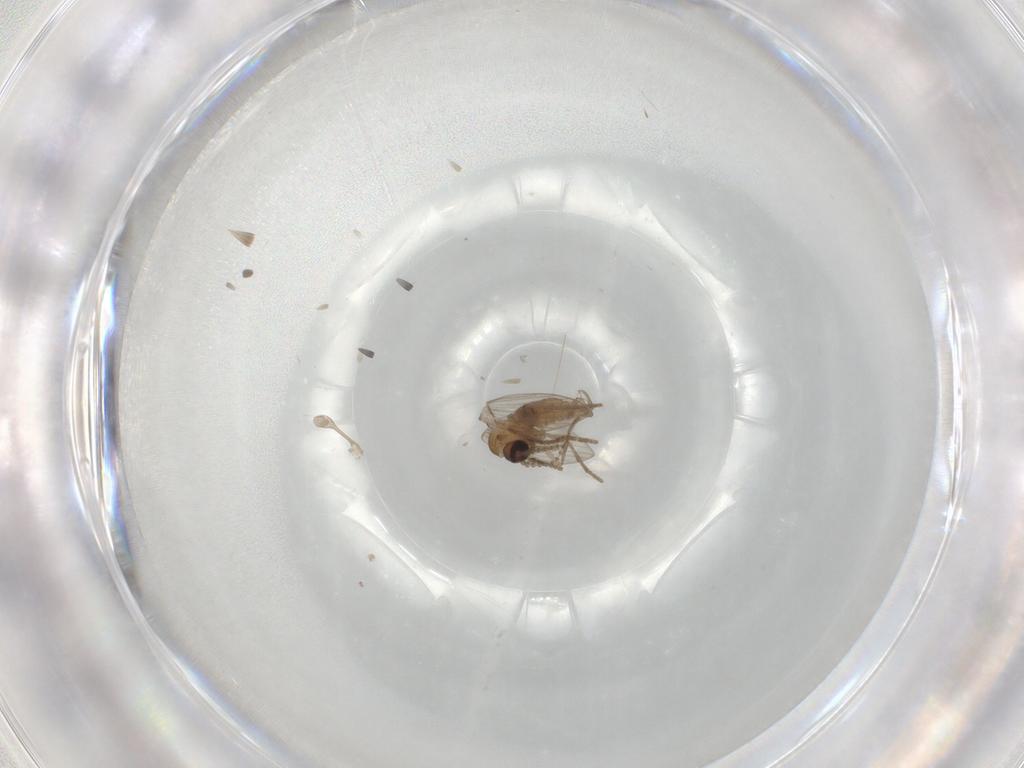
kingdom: Animalia
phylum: Arthropoda
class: Insecta
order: Diptera
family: Psychodidae
